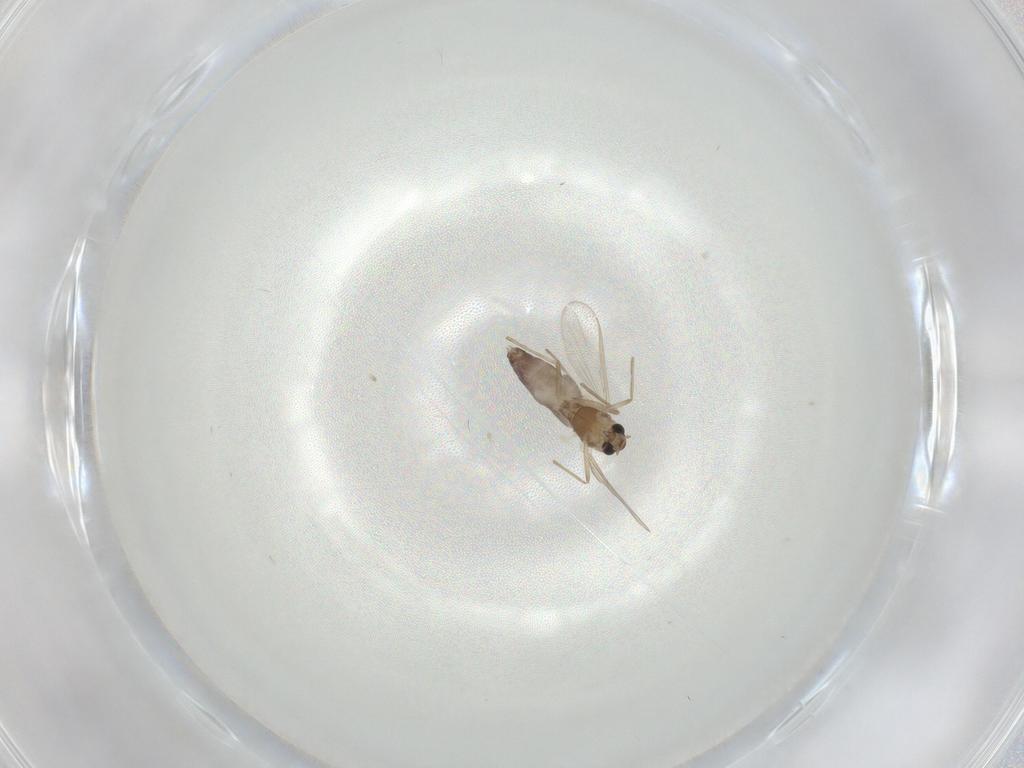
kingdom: Animalia
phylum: Arthropoda
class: Insecta
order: Diptera
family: Chironomidae
